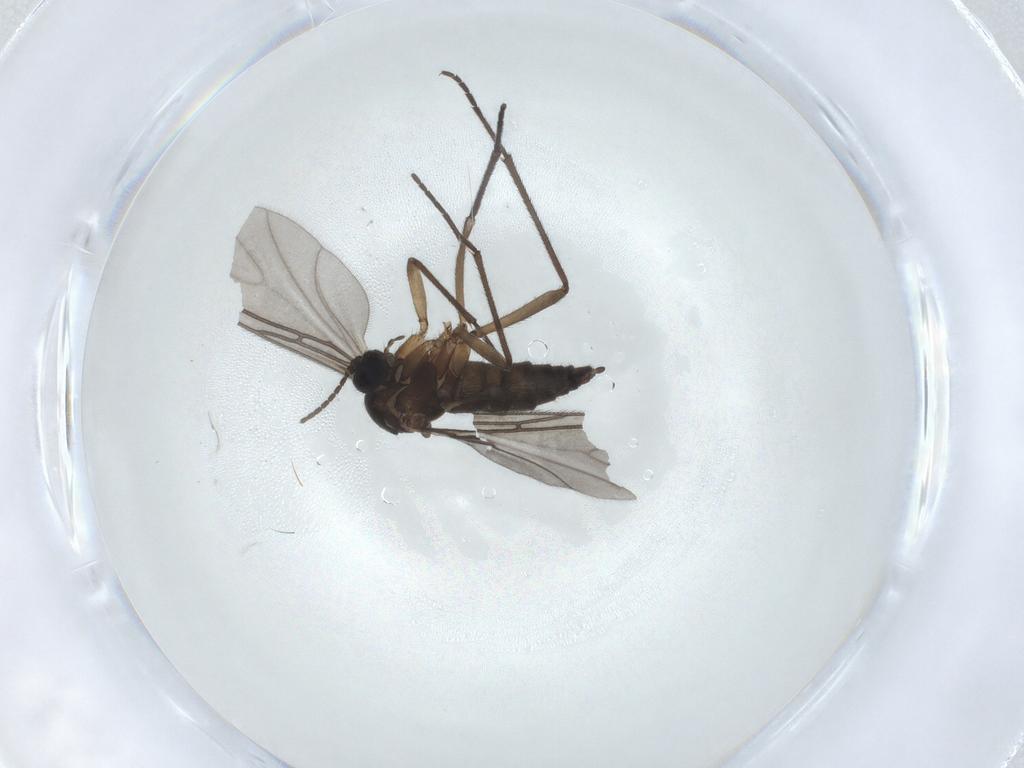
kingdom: Animalia
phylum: Arthropoda
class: Insecta
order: Diptera
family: Sciaridae
